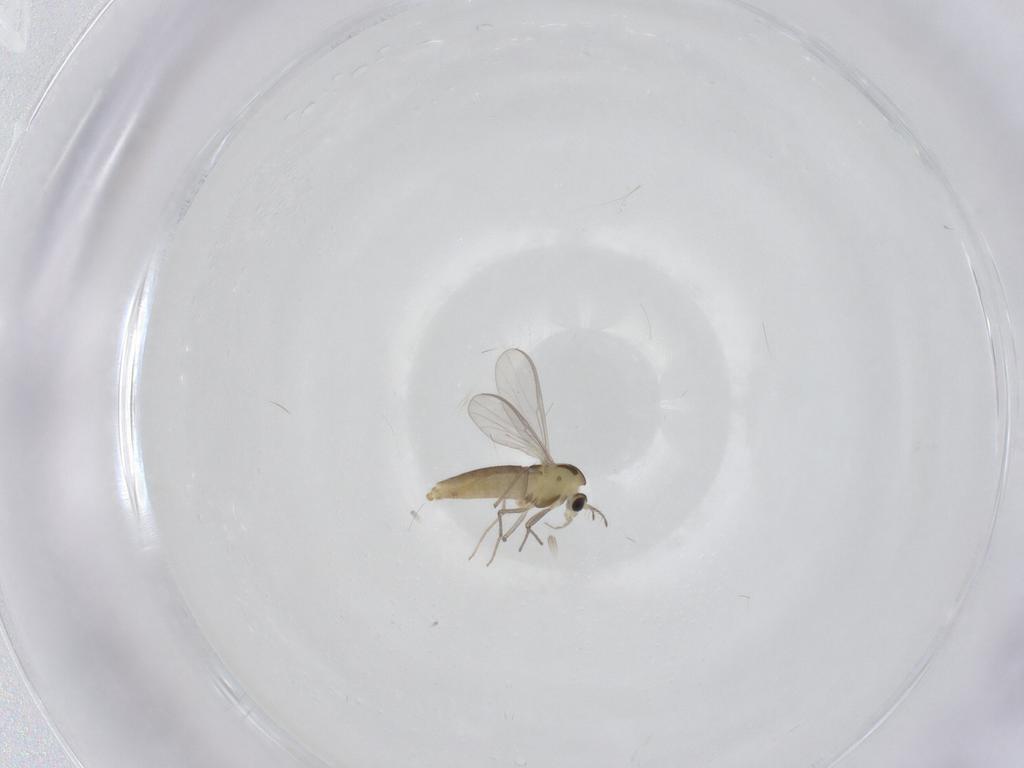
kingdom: Animalia
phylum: Arthropoda
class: Insecta
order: Diptera
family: Chironomidae
